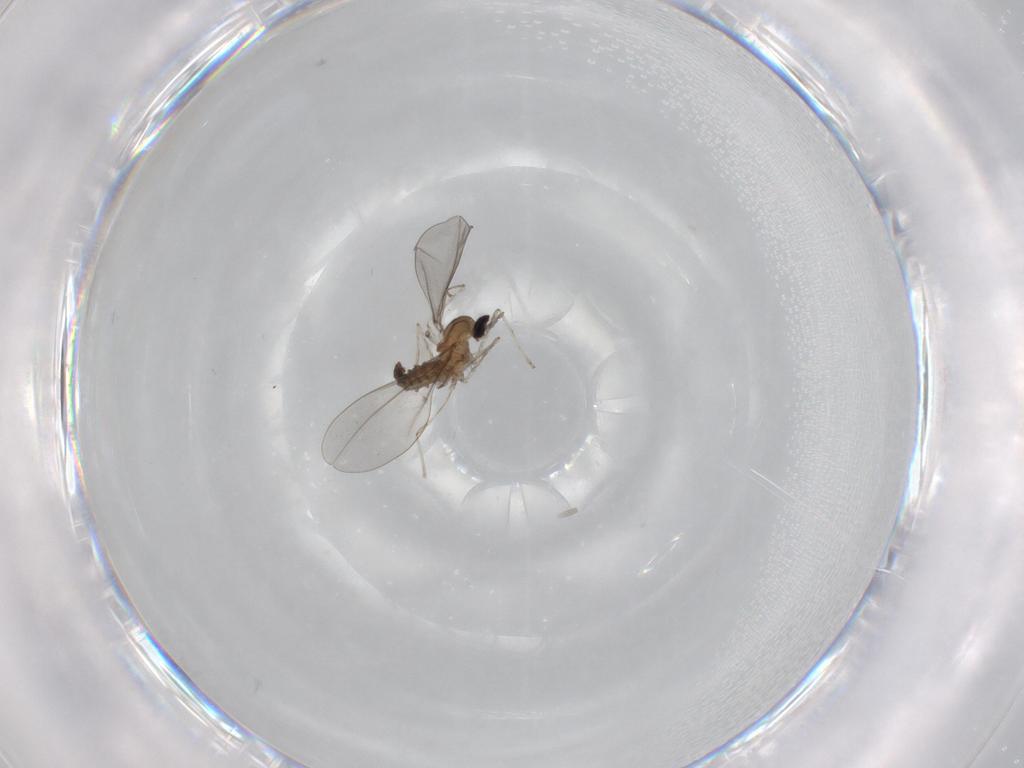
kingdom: Animalia
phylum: Arthropoda
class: Insecta
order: Diptera
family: Cecidomyiidae
